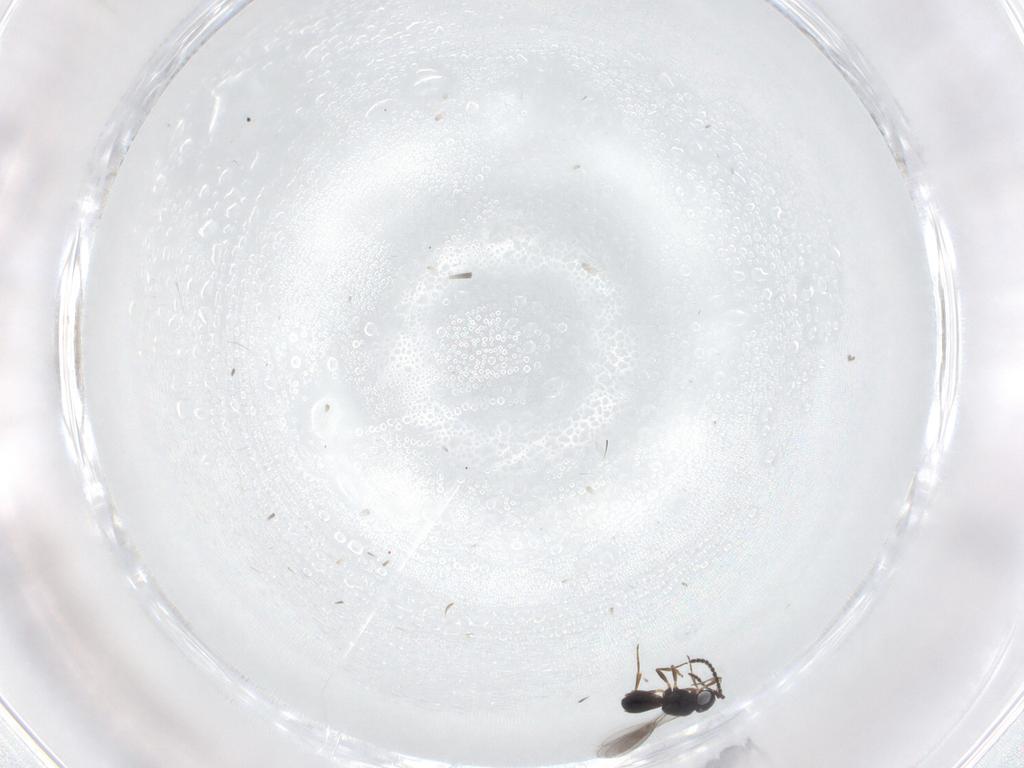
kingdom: Animalia
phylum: Arthropoda
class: Insecta
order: Hymenoptera
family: Scelionidae
